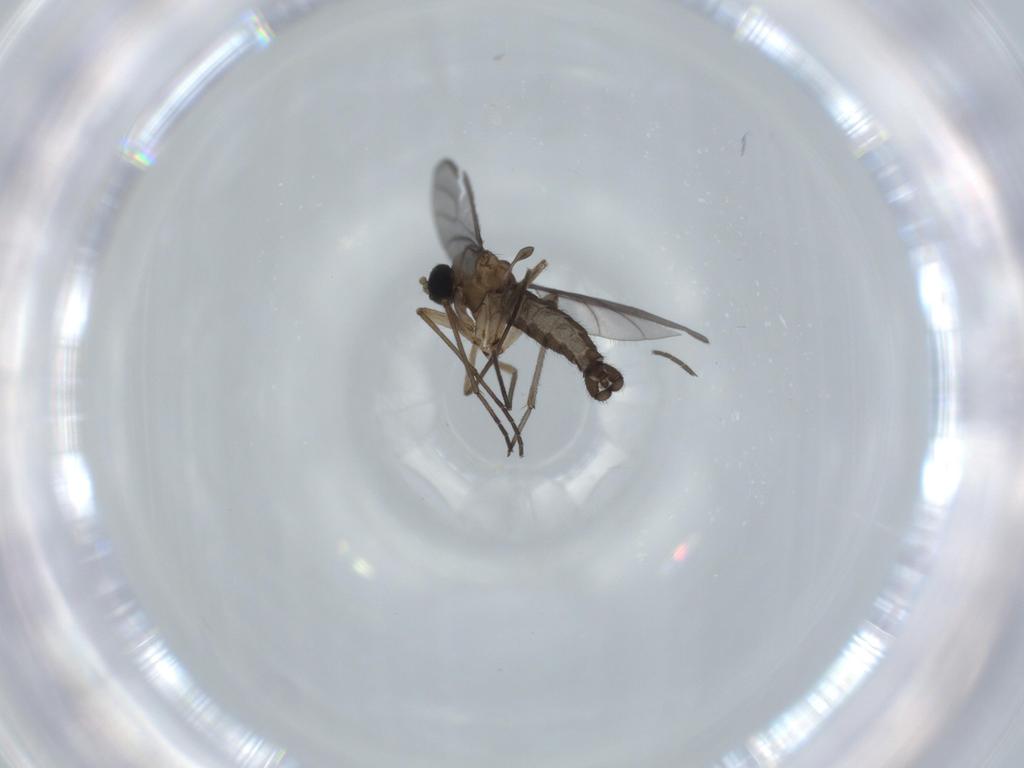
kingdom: Animalia
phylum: Arthropoda
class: Insecta
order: Diptera
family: Sciaridae
